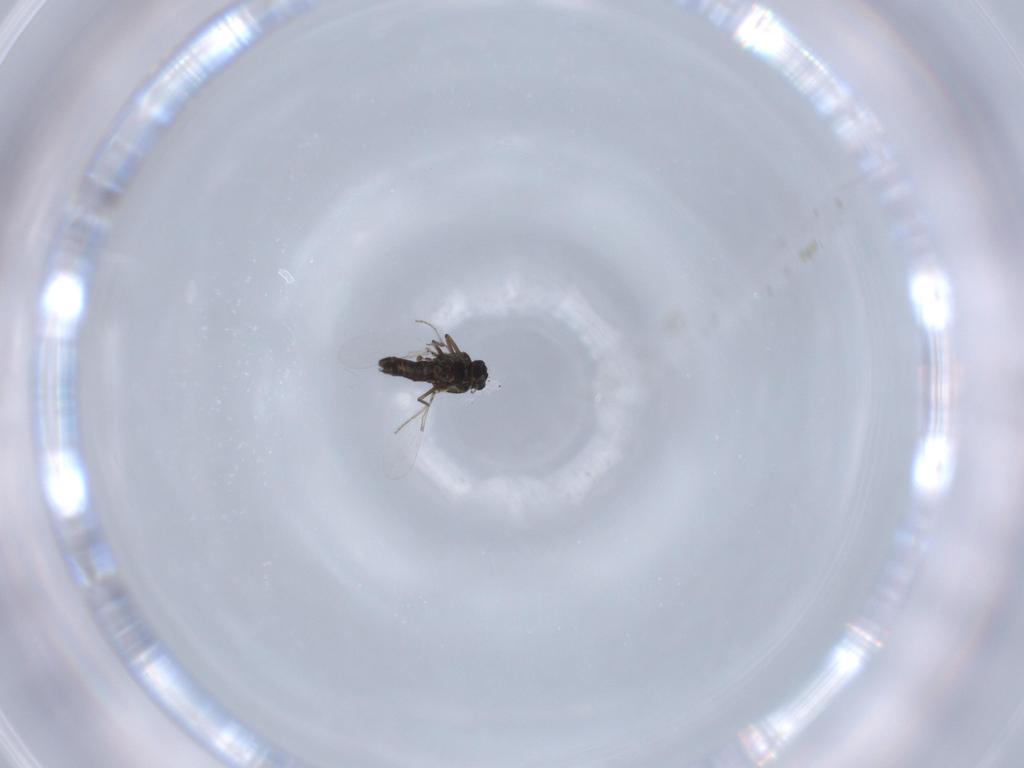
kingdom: Animalia
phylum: Arthropoda
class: Insecta
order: Diptera
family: Ceratopogonidae
